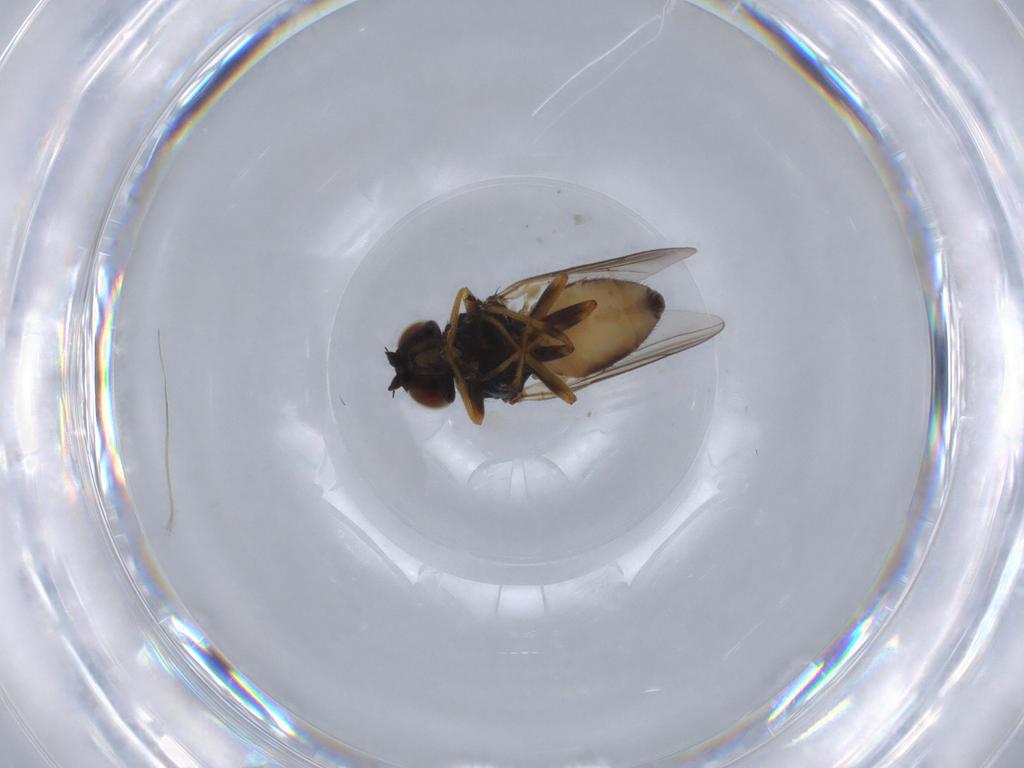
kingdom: Animalia
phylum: Arthropoda
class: Insecta
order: Diptera
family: Chloropidae
